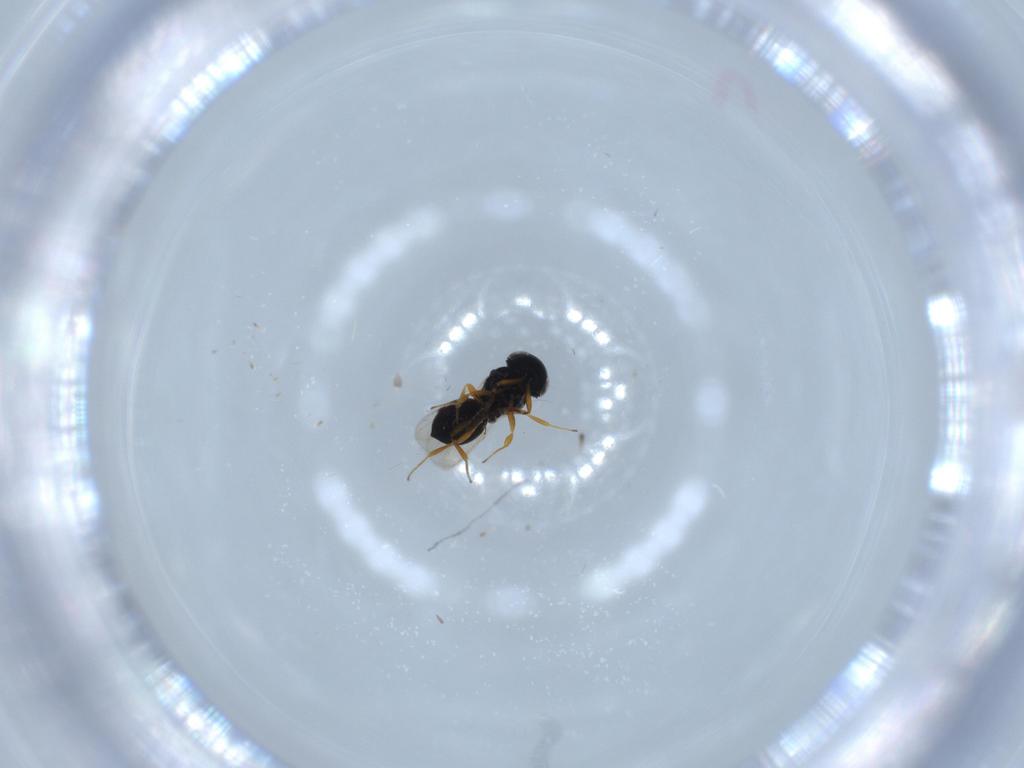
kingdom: Animalia
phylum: Arthropoda
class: Insecta
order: Hymenoptera
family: Scelionidae
